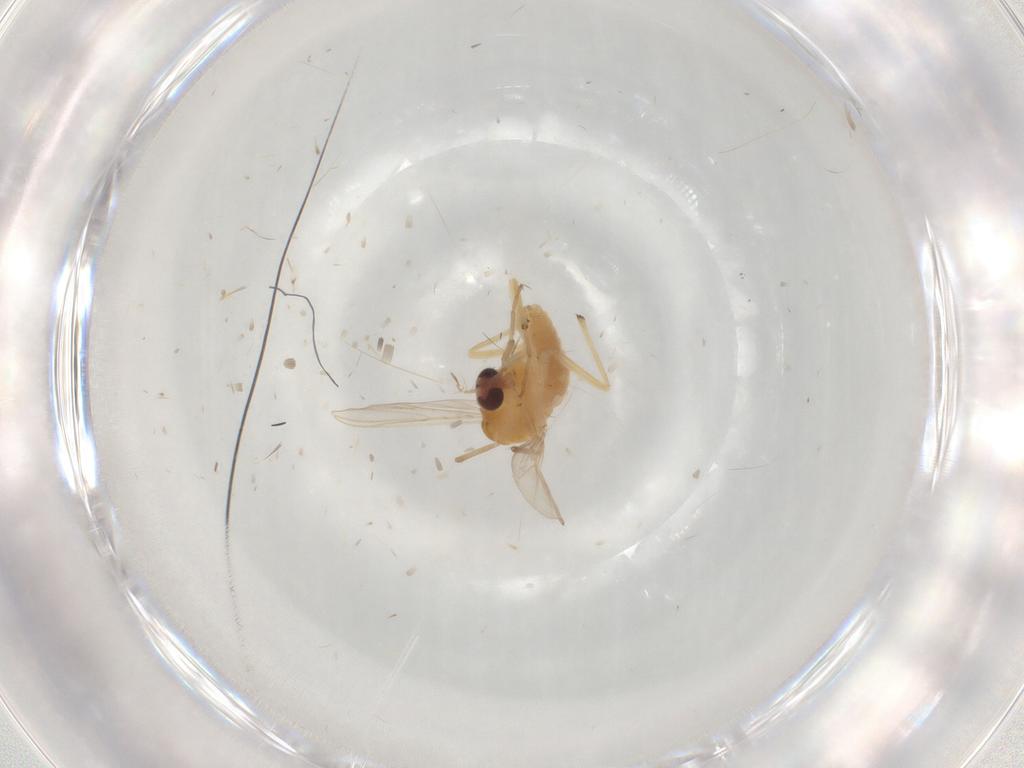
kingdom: Animalia
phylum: Arthropoda
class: Insecta
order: Diptera
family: Chironomidae
